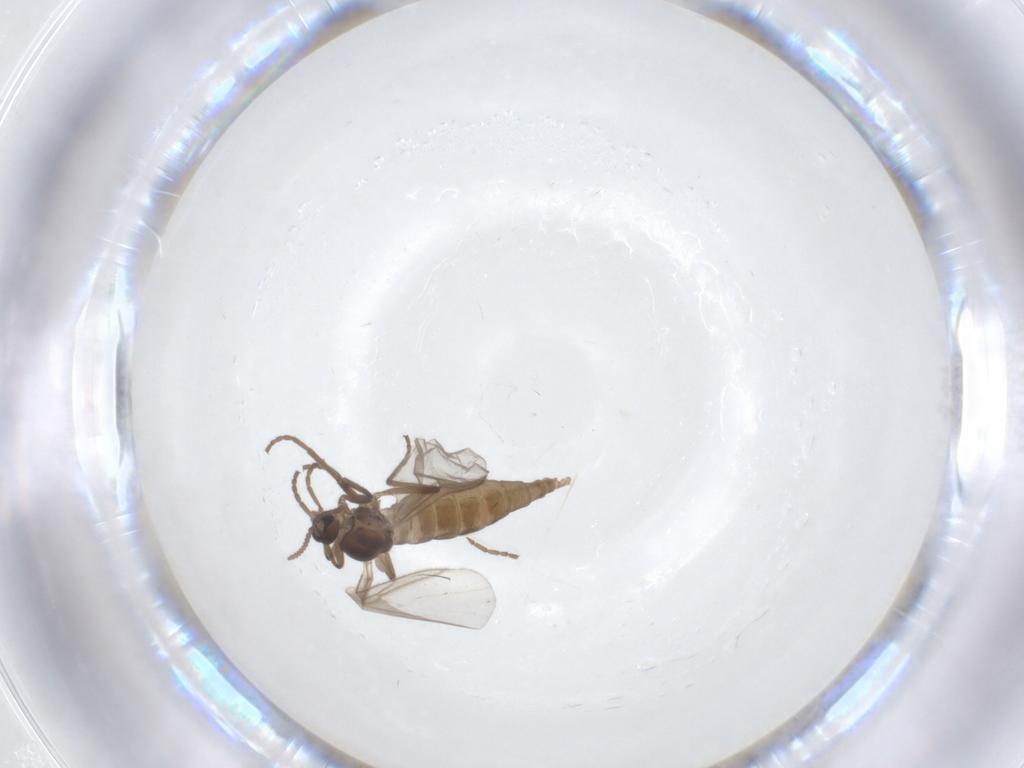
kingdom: Animalia
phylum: Arthropoda
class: Insecta
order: Diptera
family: Cecidomyiidae
